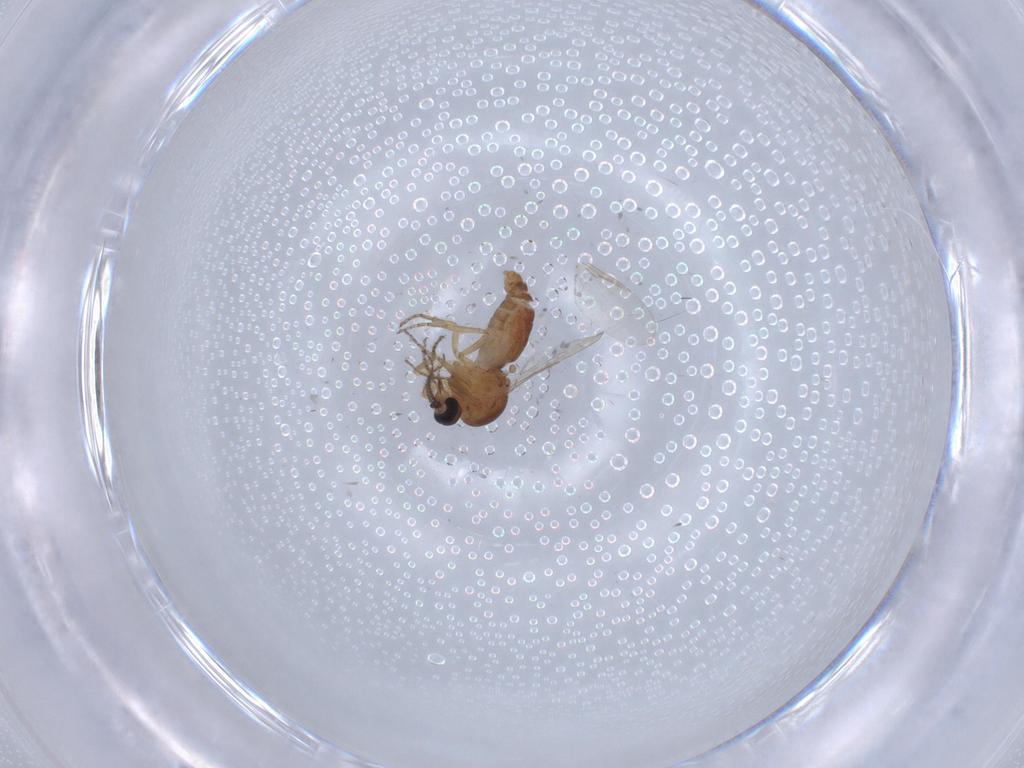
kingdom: Animalia
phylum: Arthropoda
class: Insecta
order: Diptera
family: Ceratopogonidae
